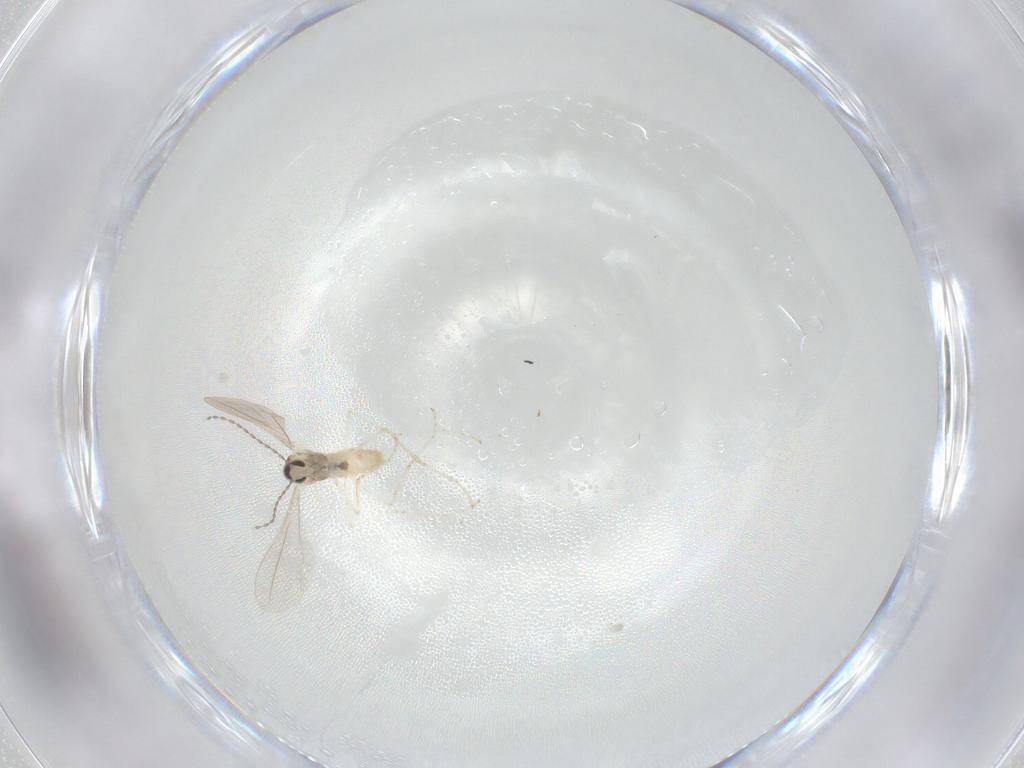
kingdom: Animalia
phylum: Arthropoda
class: Insecta
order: Diptera
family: Cecidomyiidae
